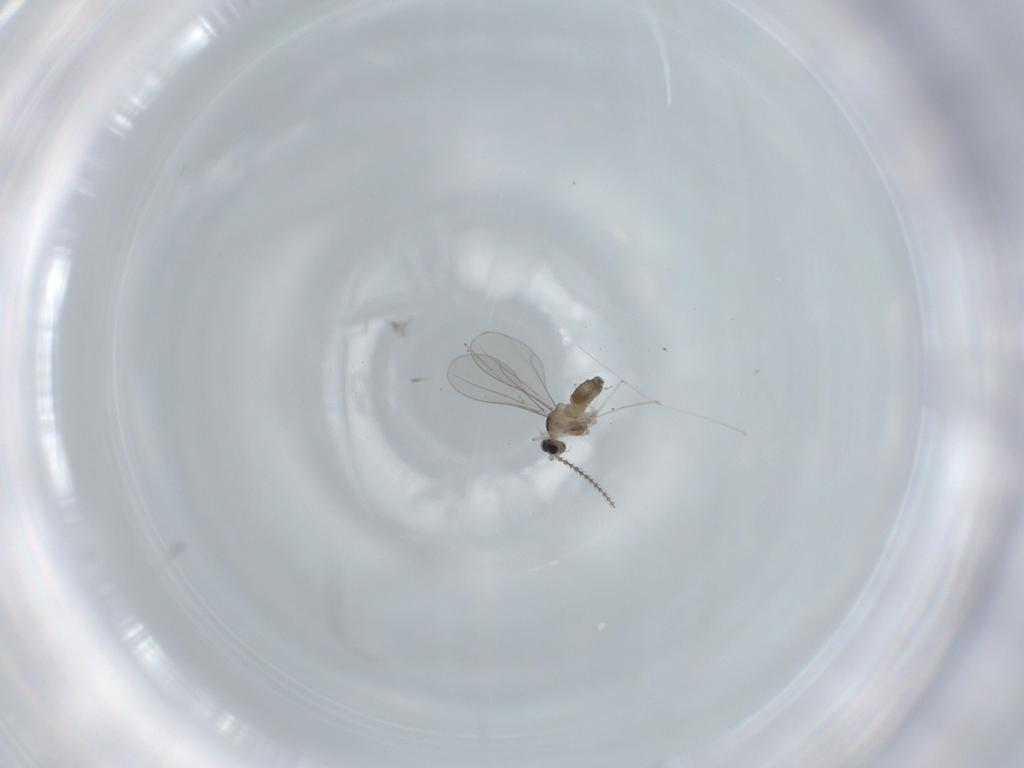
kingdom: Animalia
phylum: Arthropoda
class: Insecta
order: Diptera
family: Cecidomyiidae
